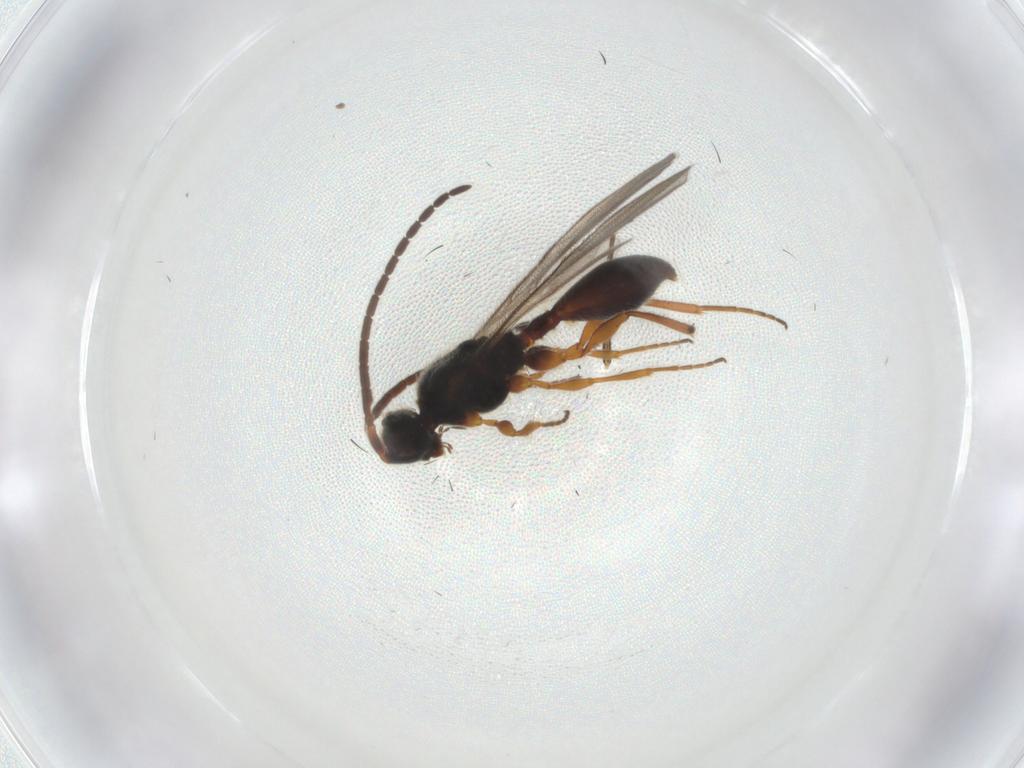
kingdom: Animalia
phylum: Arthropoda
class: Insecta
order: Hymenoptera
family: Diapriidae
